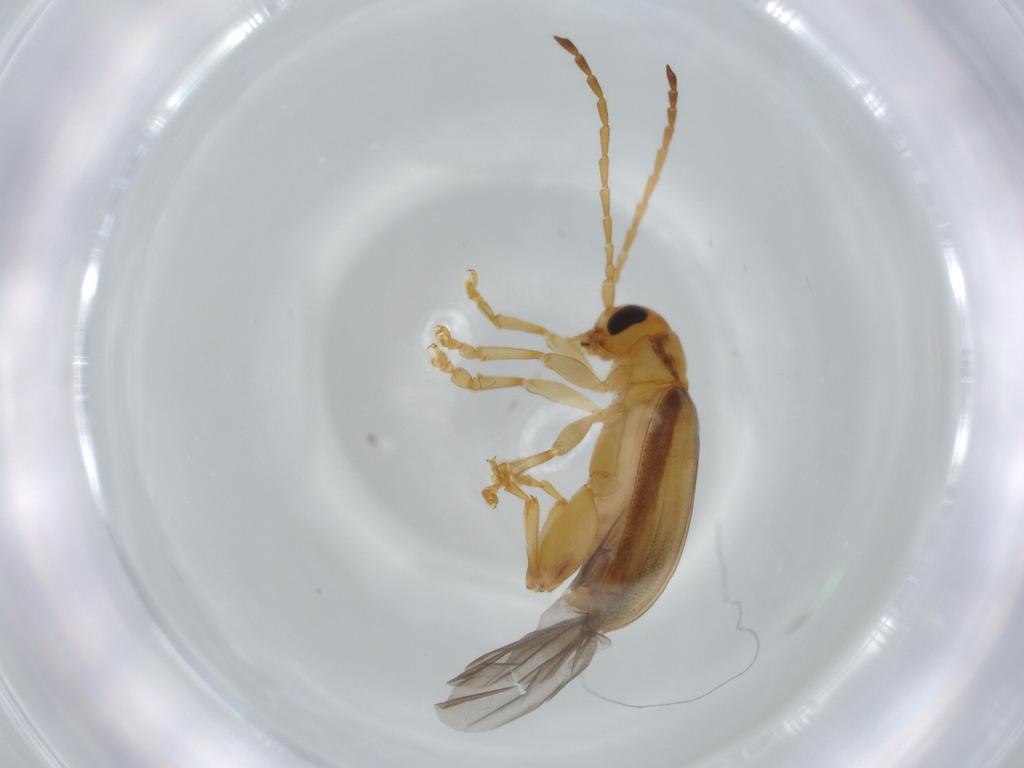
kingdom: Animalia
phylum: Arthropoda
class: Insecta
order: Coleoptera
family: Chrysomelidae
